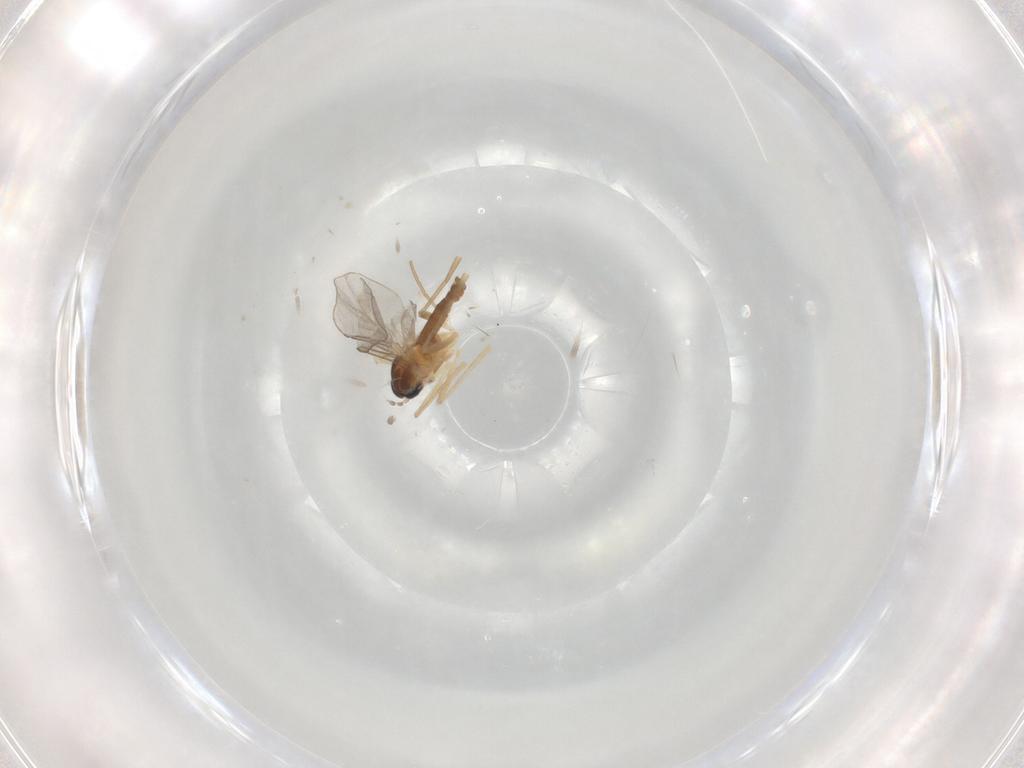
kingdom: Animalia
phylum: Arthropoda
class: Insecta
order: Diptera
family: Cecidomyiidae
